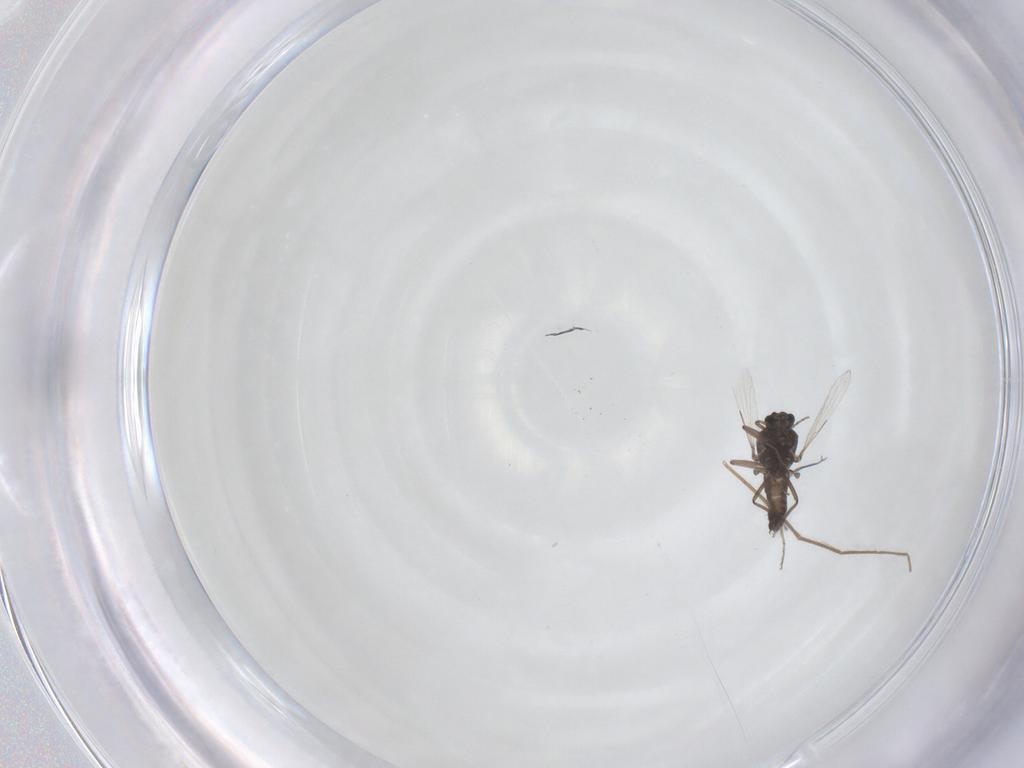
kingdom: Animalia
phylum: Arthropoda
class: Insecta
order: Diptera
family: Ceratopogonidae
